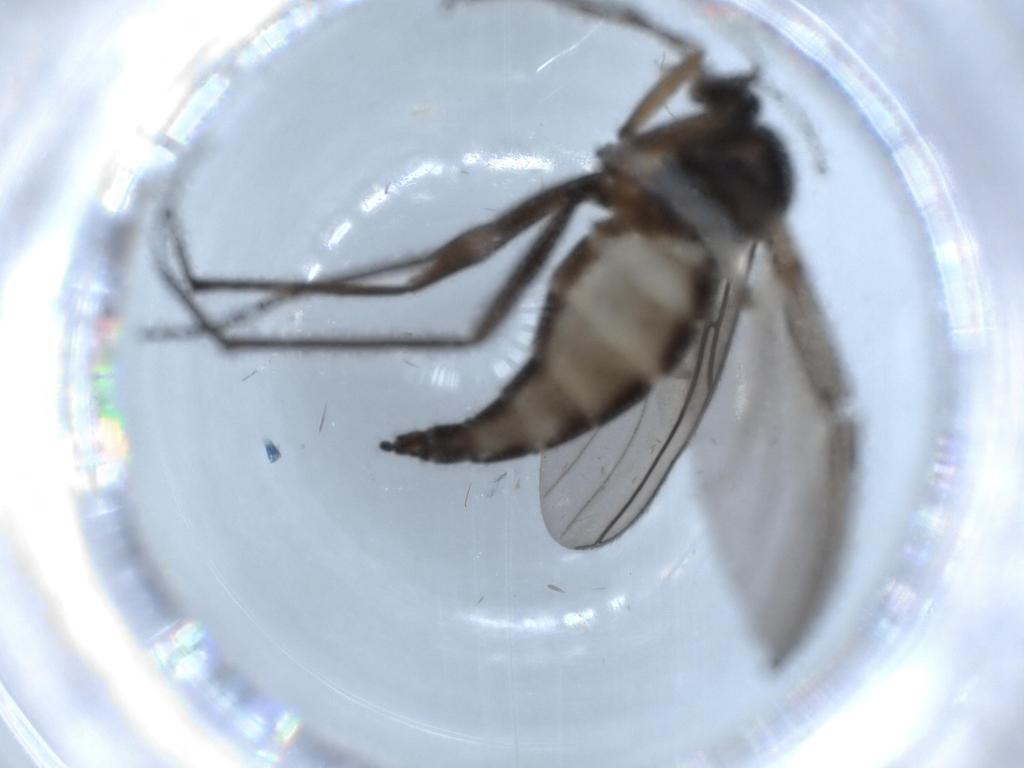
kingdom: Animalia
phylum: Arthropoda
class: Insecta
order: Diptera
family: Sciaridae
